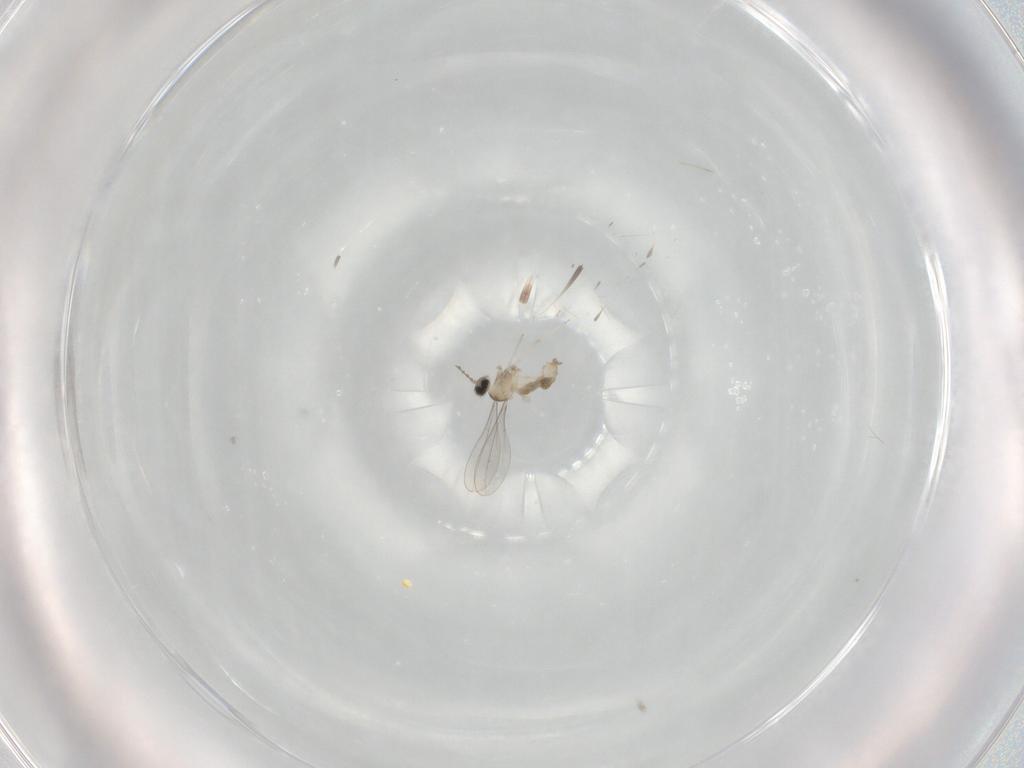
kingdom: Animalia
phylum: Arthropoda
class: Insecta
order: Diptera
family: Cecidomyiidae
